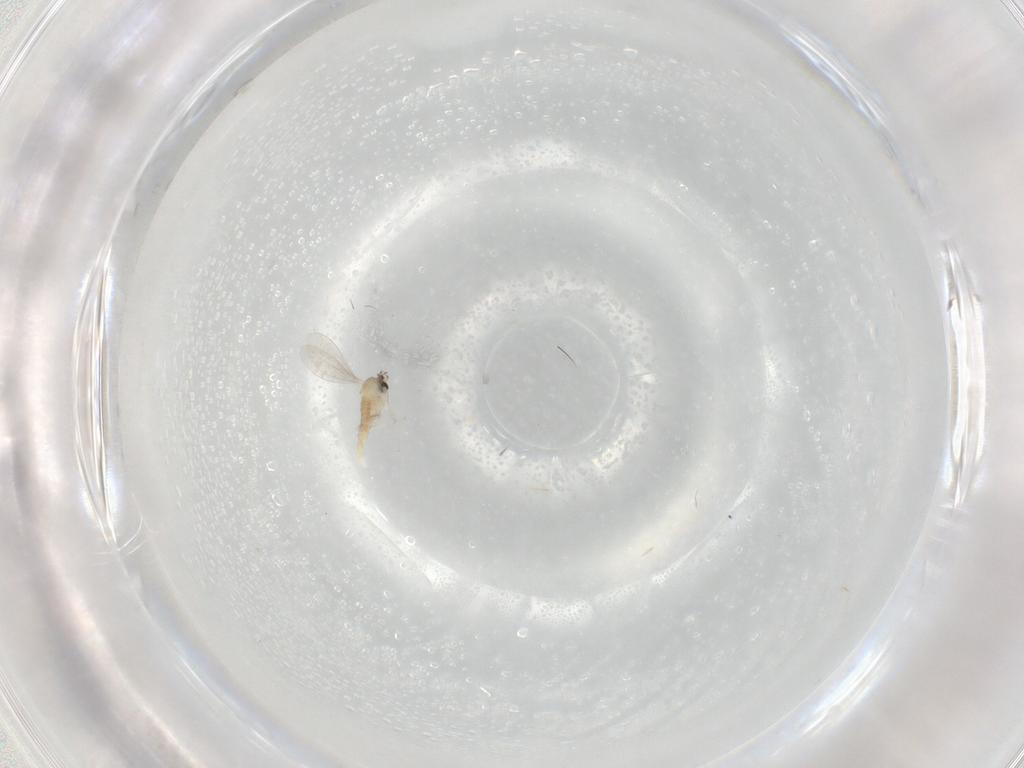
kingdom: Animalia
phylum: Arthropoda
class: Insecta
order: Diptera
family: Cecidomyiidae
